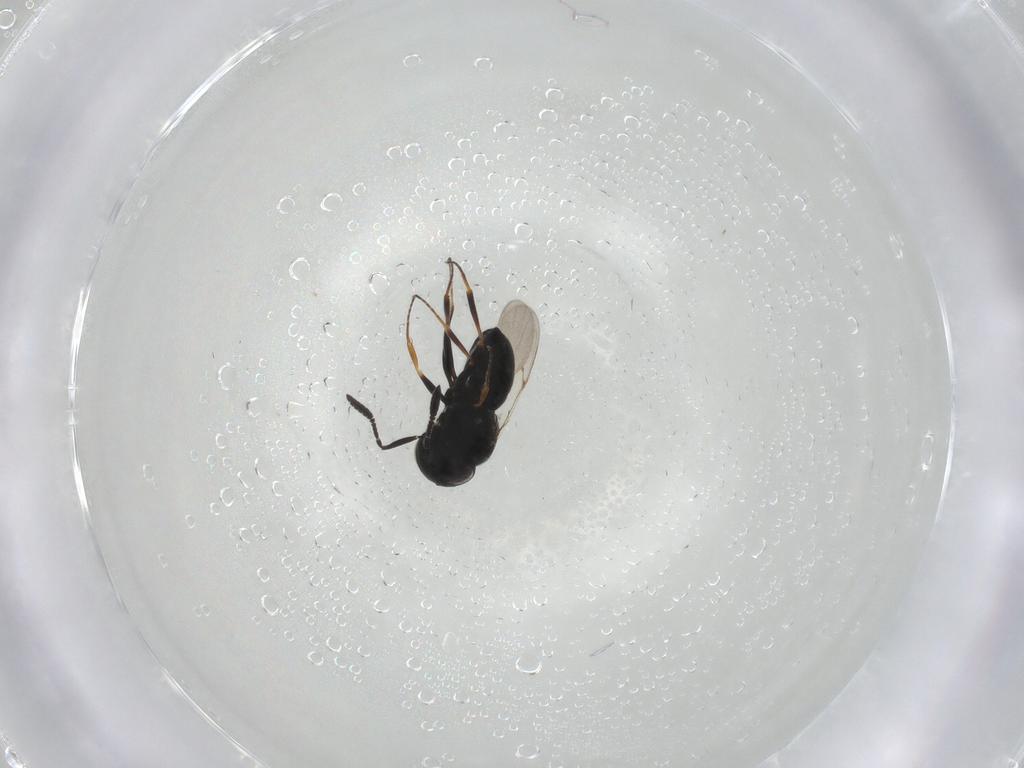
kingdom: Animalia
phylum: Arthropoda
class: Insecta
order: Hymenoptera
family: Scelionidae
